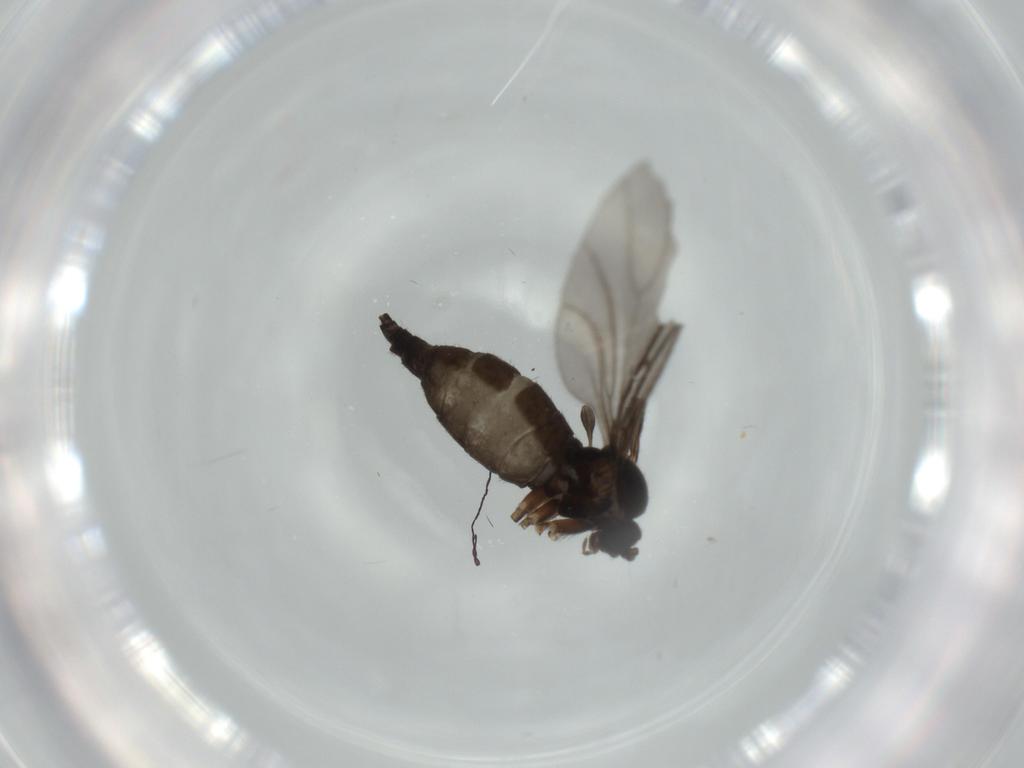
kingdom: Animalia
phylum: Arthropoda
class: Insecta
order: Diptera
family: Sciaridae
